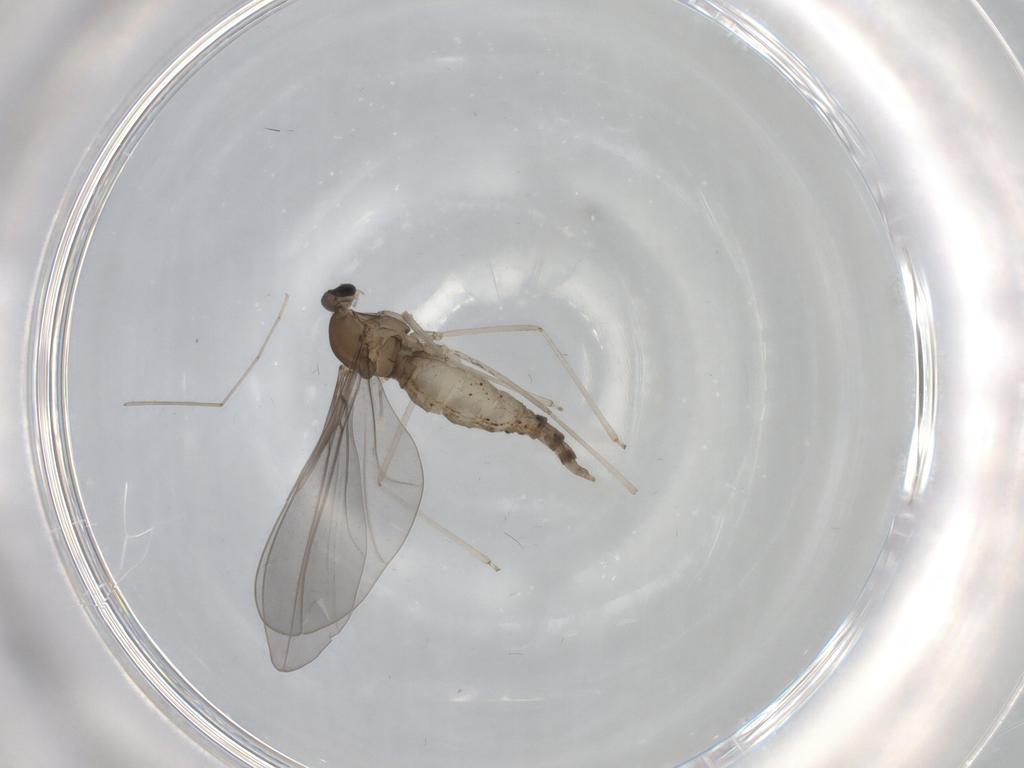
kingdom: Animalia
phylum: Arthropoda
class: Insecta
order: Diptera
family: Cecidomyiidae
